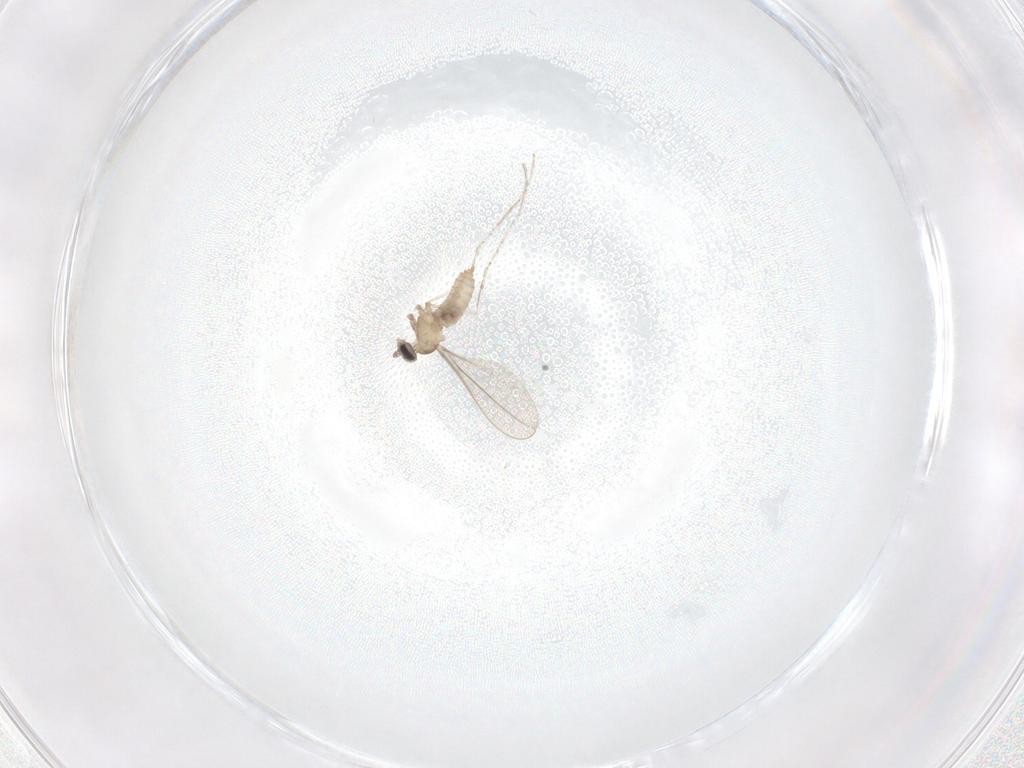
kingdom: Animalia
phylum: Arthropoda
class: Insecta
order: Diptera
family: Cecidomyiidae
